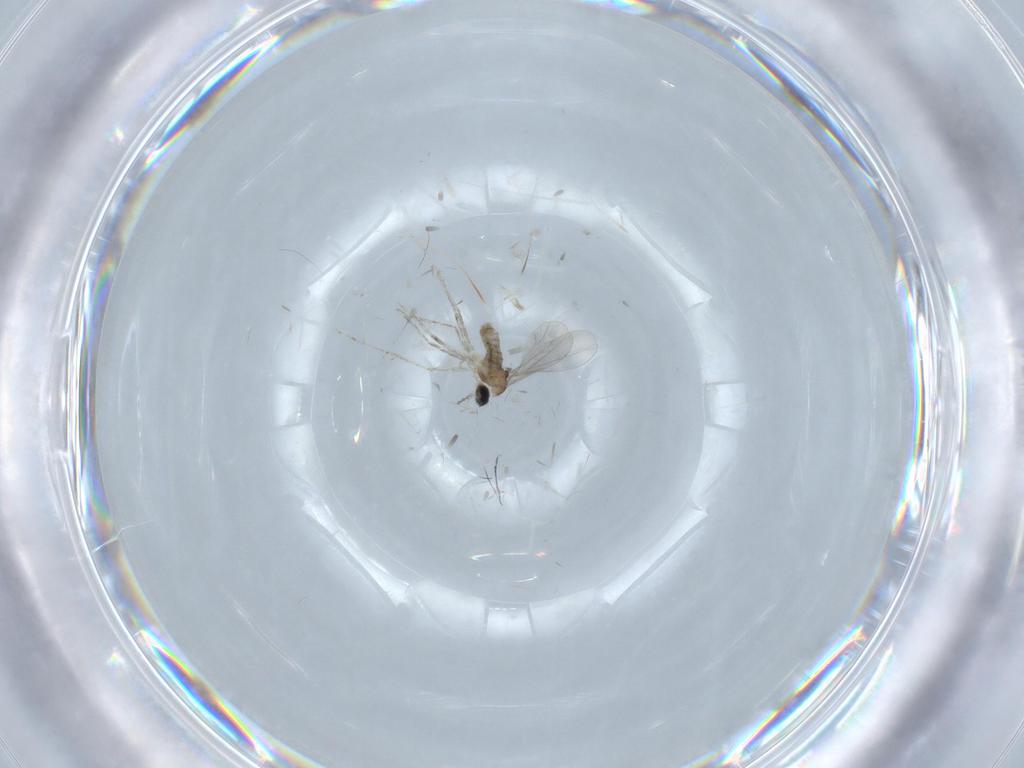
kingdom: Animalia
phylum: Arthropoda
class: Insecta
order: Diptera
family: Cecidomyiidae
